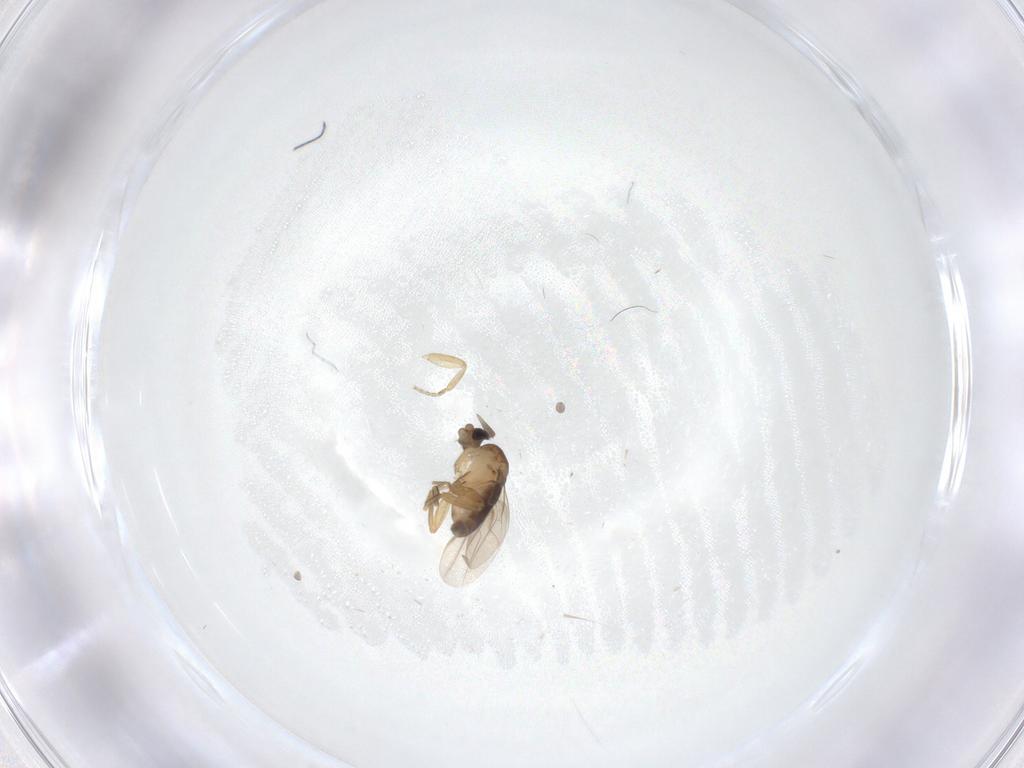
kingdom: Animalia
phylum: Arthropoda
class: Insecta
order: Diptera
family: Phoridae
